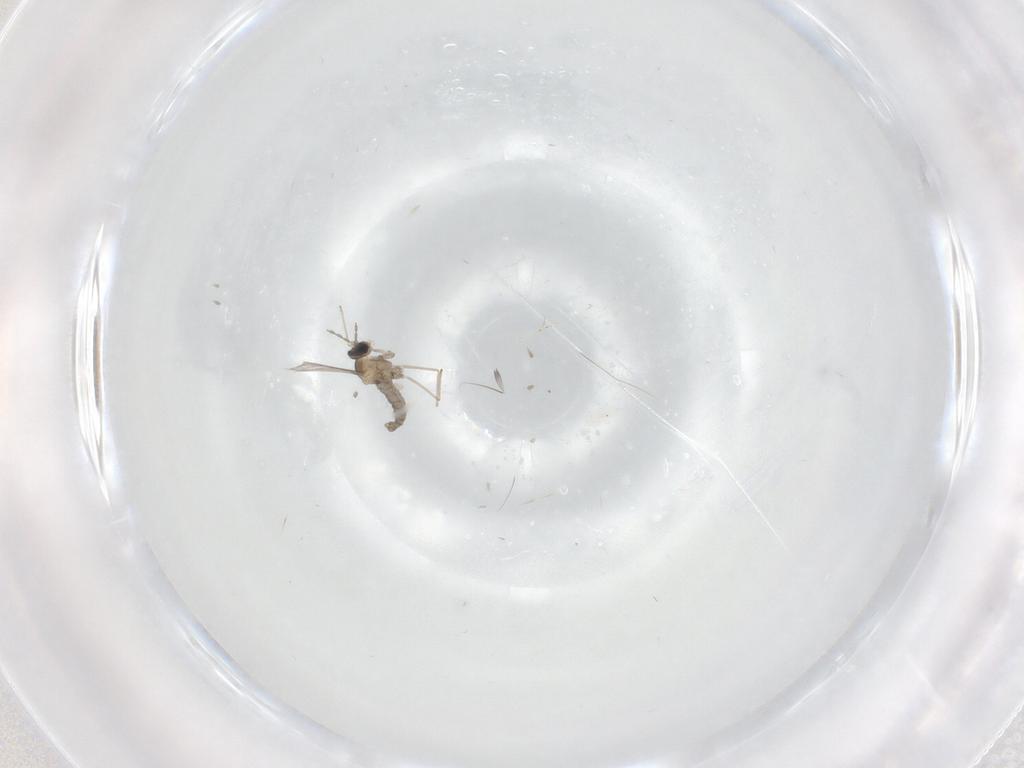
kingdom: Animalia
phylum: Arthropoda
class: Insecta
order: Diptera
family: Cecidomyiidae
